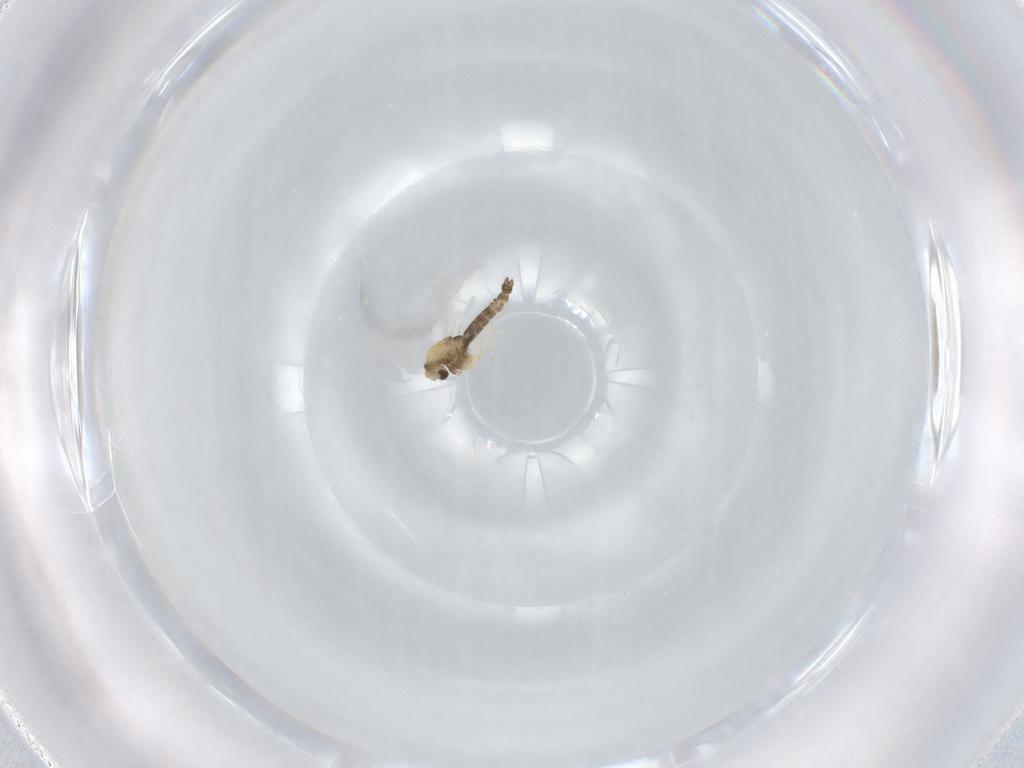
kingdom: Animalia
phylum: Arthropoda
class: Insecta
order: Diptera
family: Chironomidae
